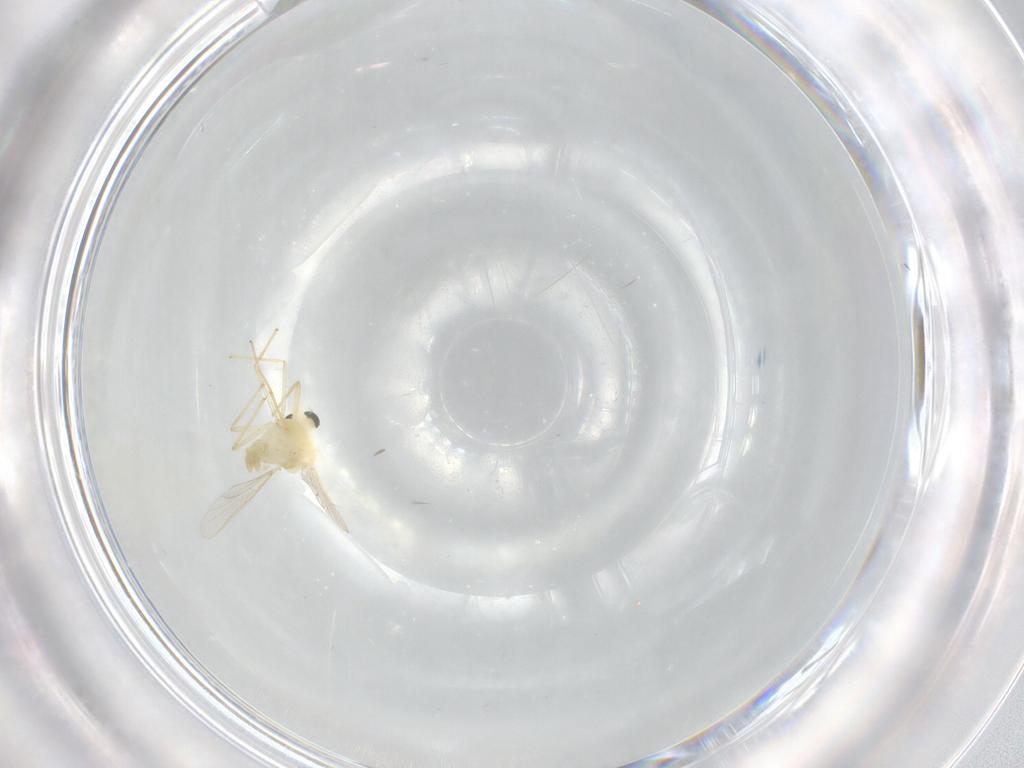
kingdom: Animalia
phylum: Arthropoda
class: Insecta
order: Diptera
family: Chironomidae
